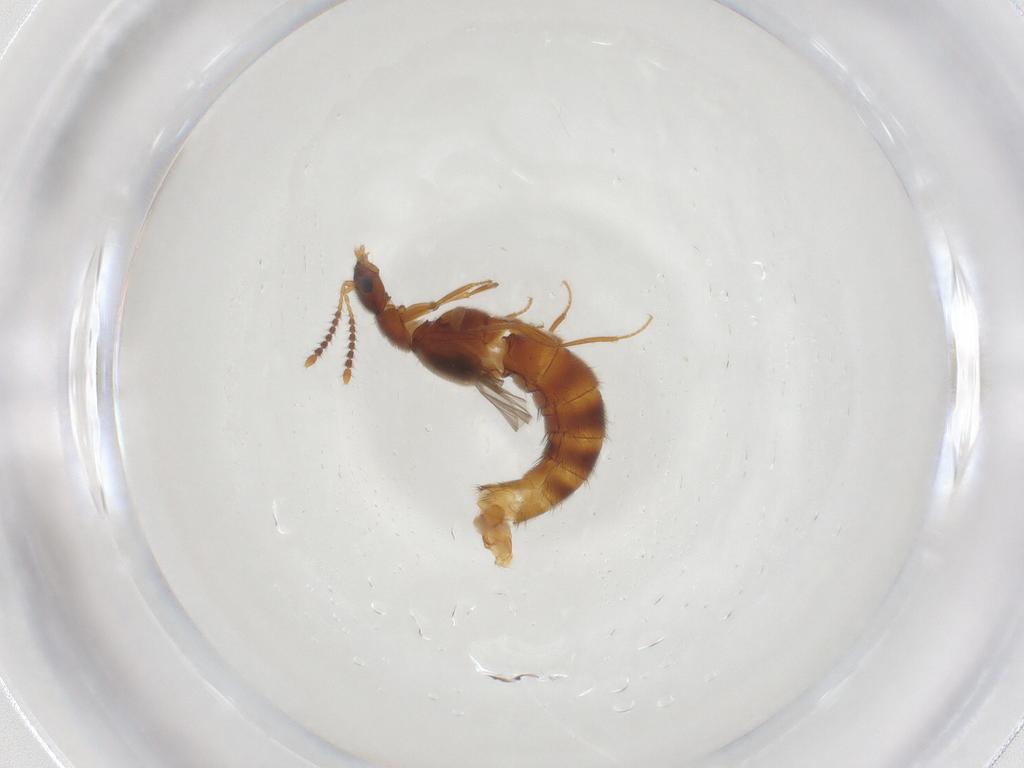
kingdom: Animalia
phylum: Arthropoda
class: Insecta
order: Coleoptera
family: Staphylinidae
